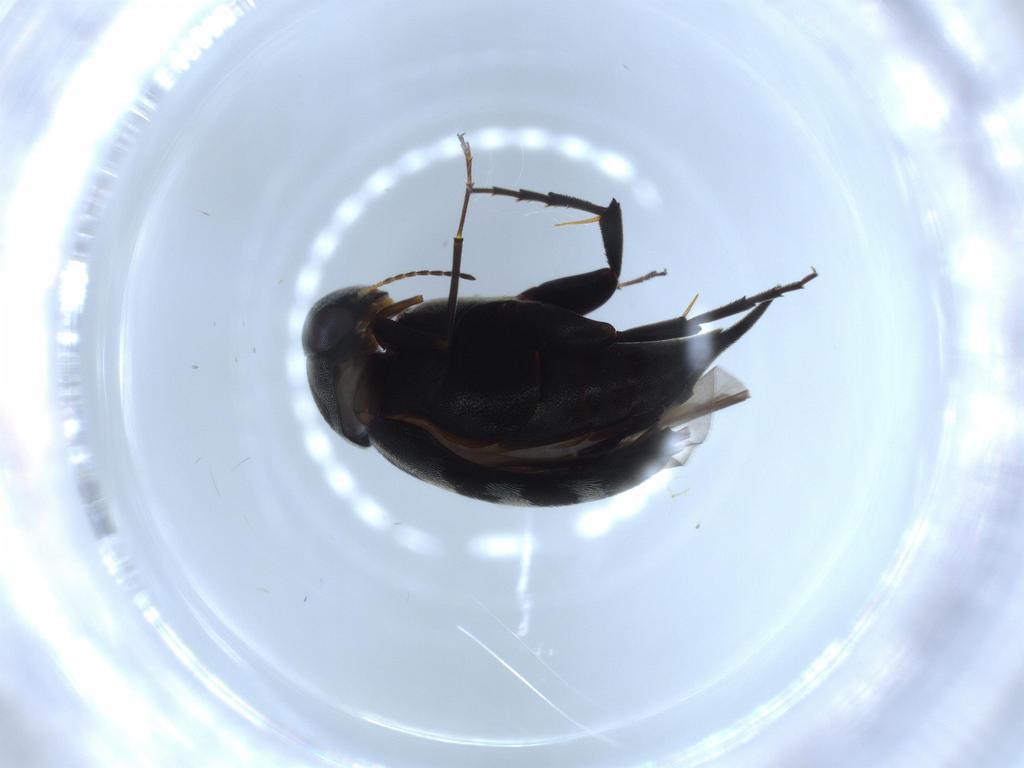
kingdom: Animalia
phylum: Arthropoda
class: Insecta
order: Coleoptera
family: Mordellidae
